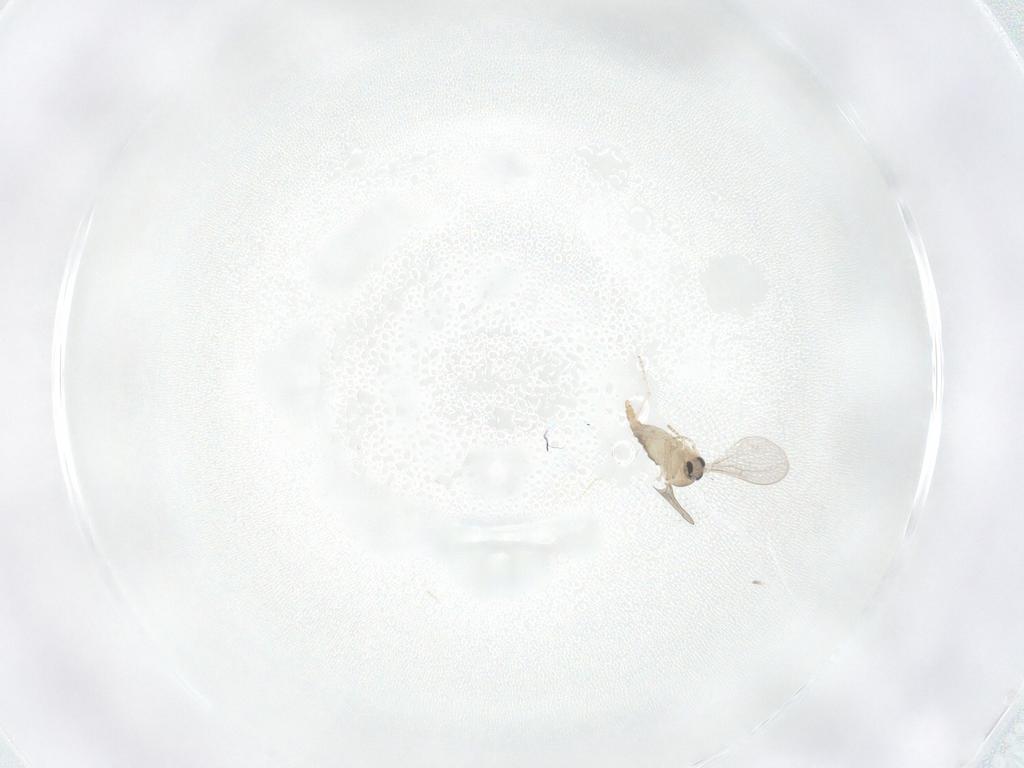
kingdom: Animalia
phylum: Arthropoda
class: Insecta
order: Diptera
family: Cecidomyiidae
